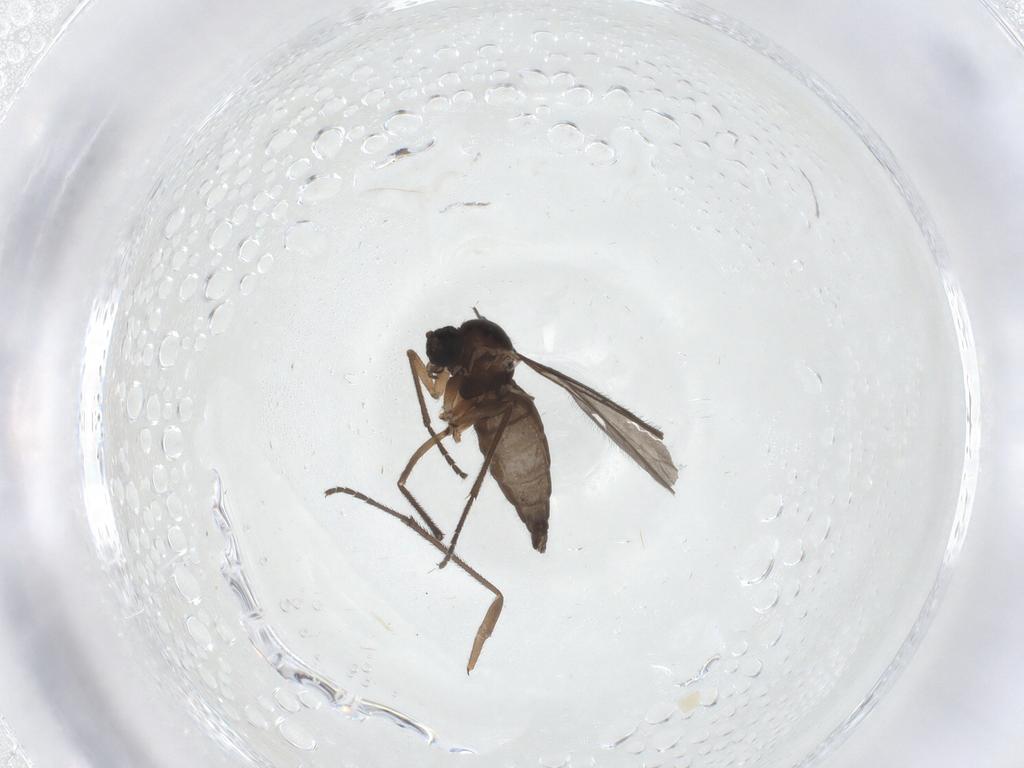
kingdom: Animalia
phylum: Arthropoda
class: Insecta
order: Diptera
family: Sciaridae
